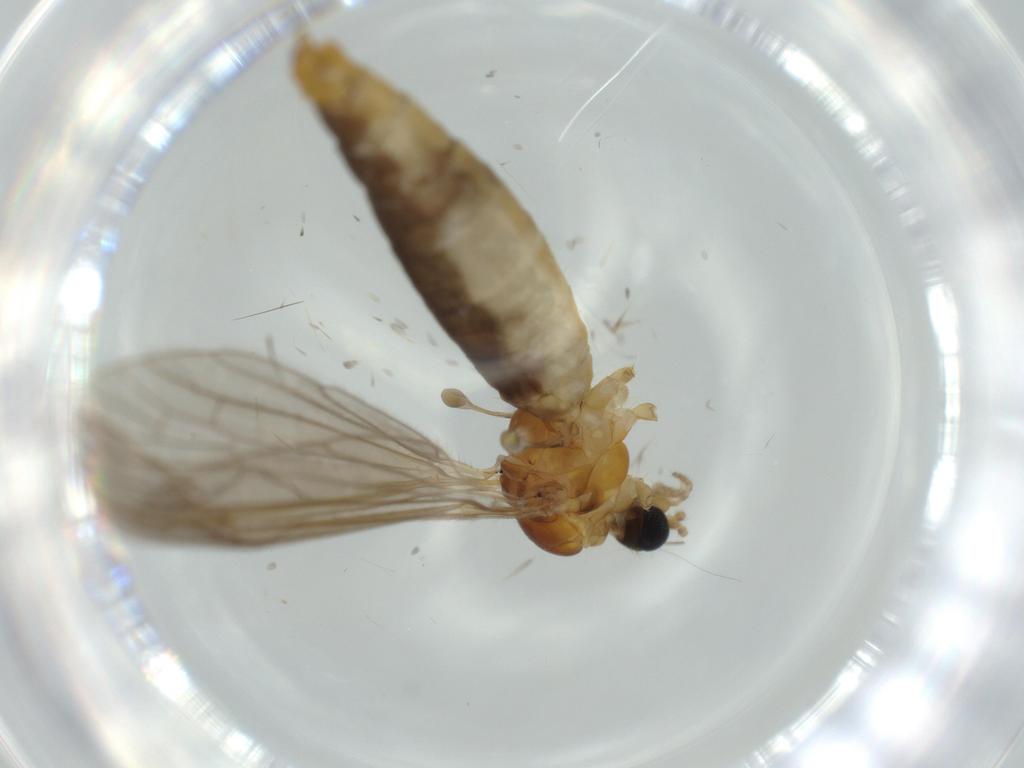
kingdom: Animalia
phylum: Arthropoda
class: Insecta
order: Diptera
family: Limoniidae
